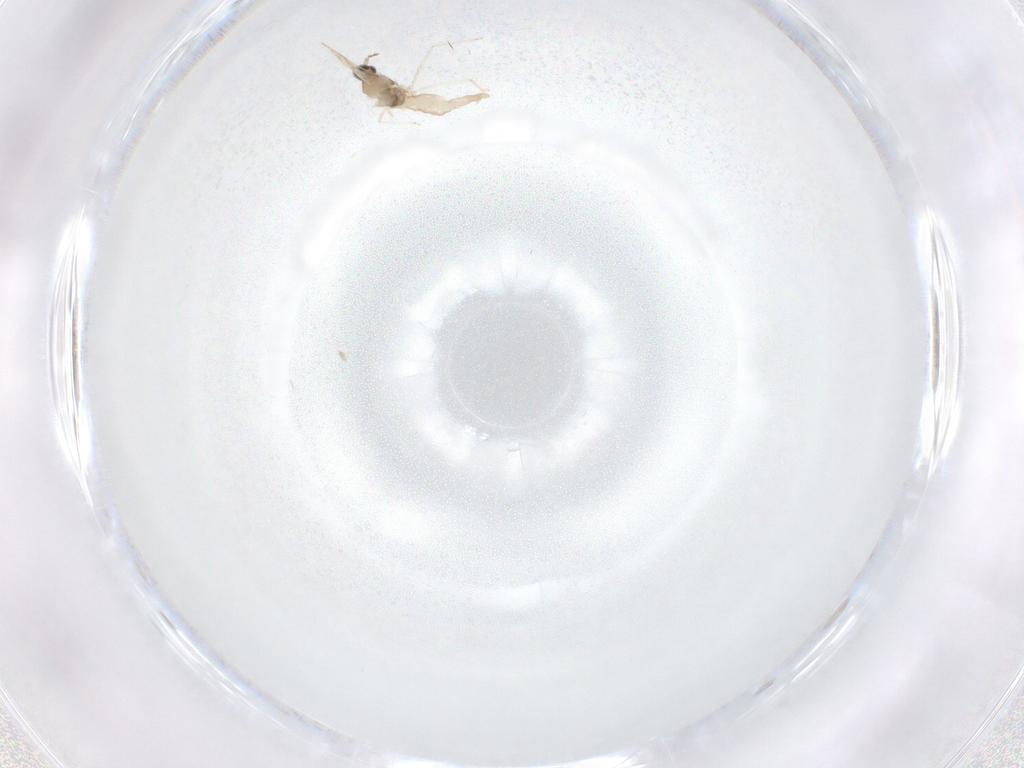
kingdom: Animalia
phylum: Arthropoda
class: Insecta
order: Diptera
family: Cecidomyiidae
